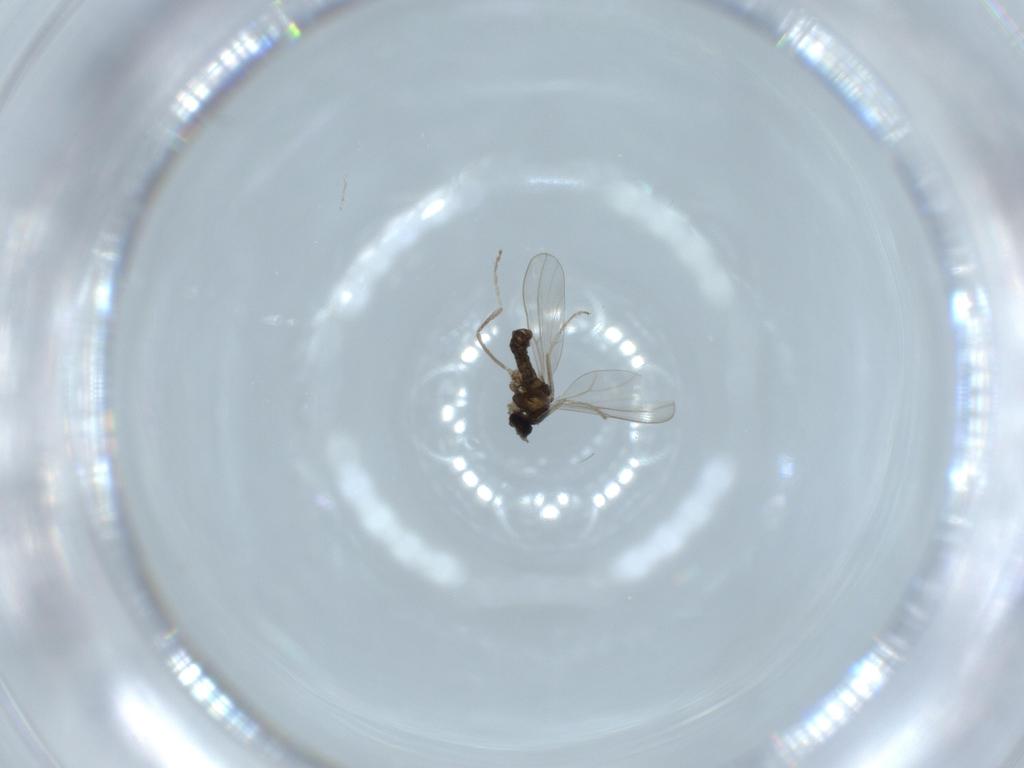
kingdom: Animalia
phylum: Arthropoda
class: Insecta
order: Diptera
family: Cecidomyiidae
